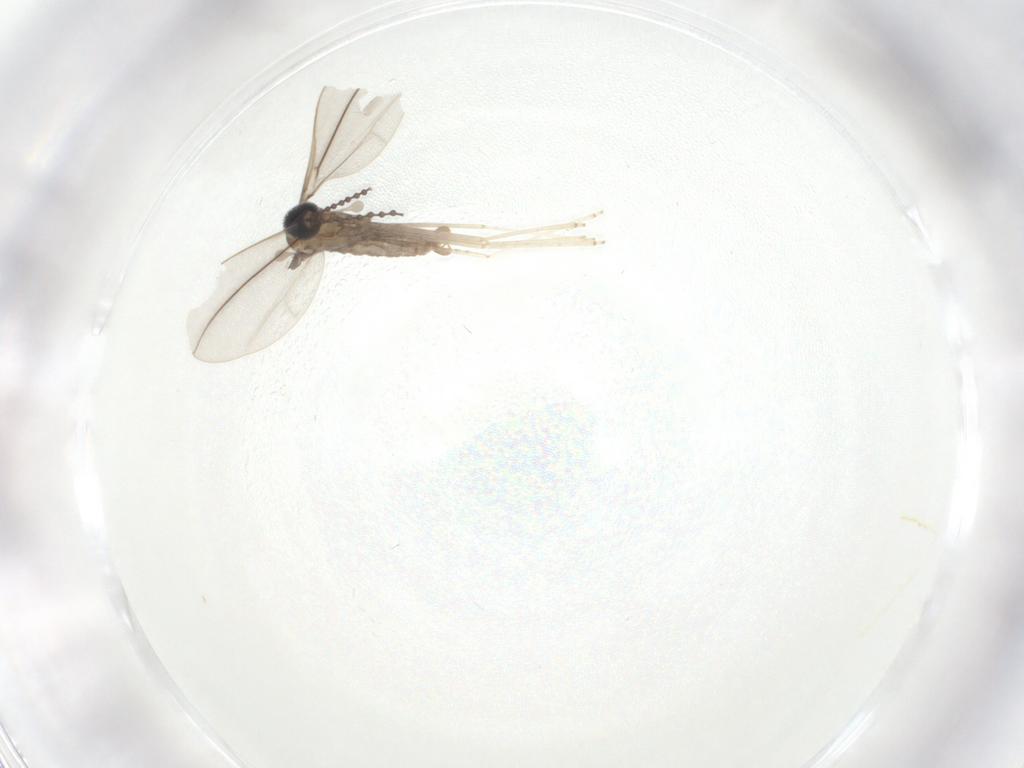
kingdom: Animalia
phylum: Arthropoda
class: Insecta
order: Diptera
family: Cecidomyiidae
